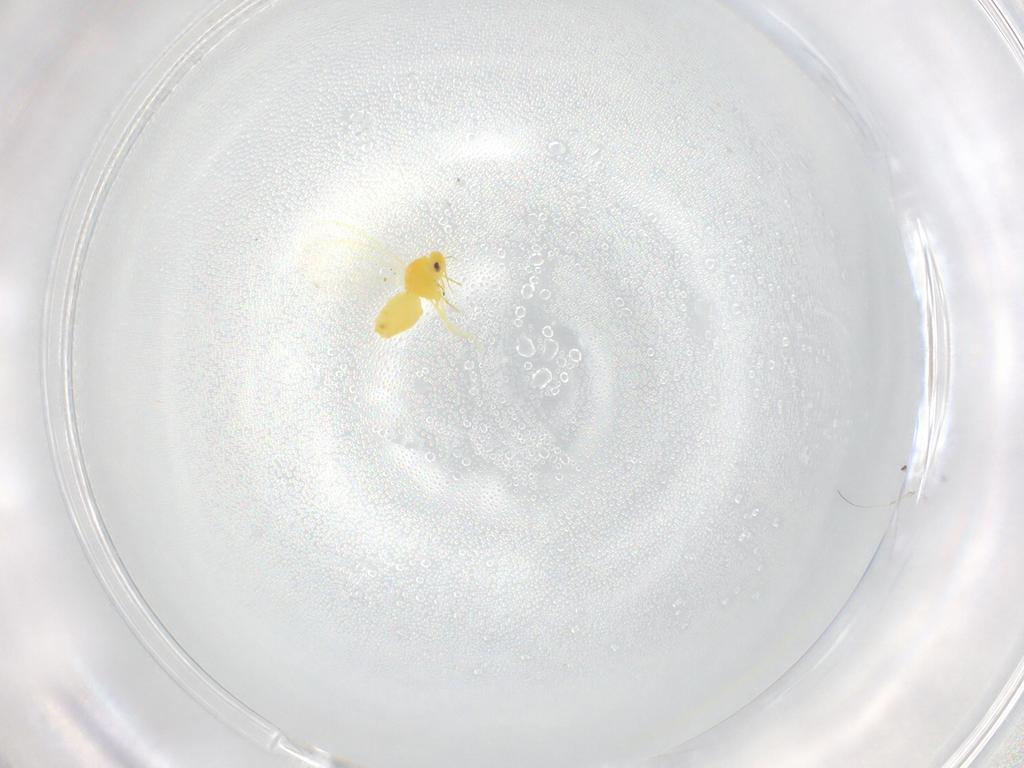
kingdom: Animalia
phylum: Arthropoda
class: Insecta
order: Hemiptera
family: Aleyrodidae
